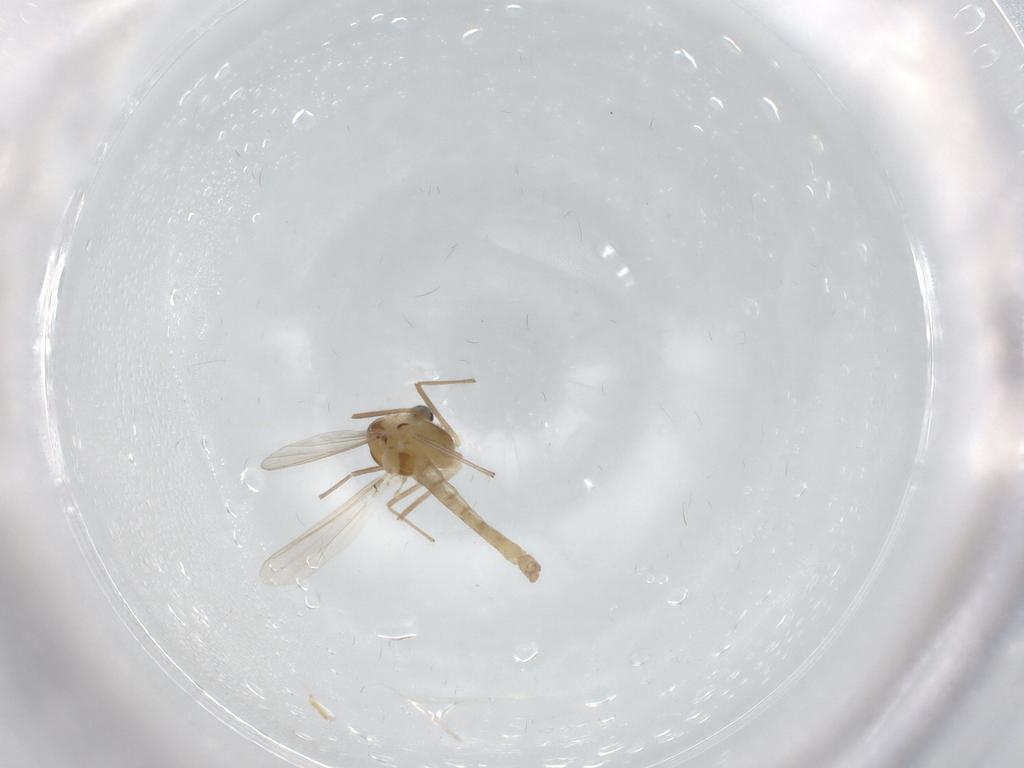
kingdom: Animalia
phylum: Arthropoda
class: Insecta
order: Diptera
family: Chironomidae
